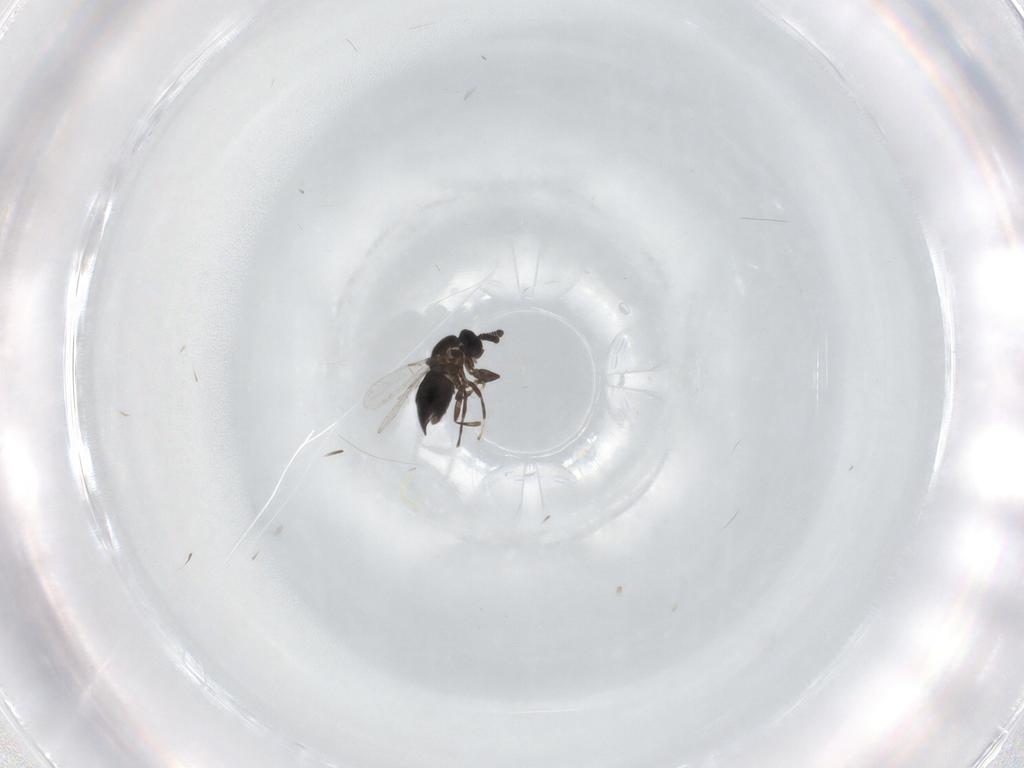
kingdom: Animalia
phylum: Arthropoda
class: Insecta
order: Diptera
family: Scatopsidae
